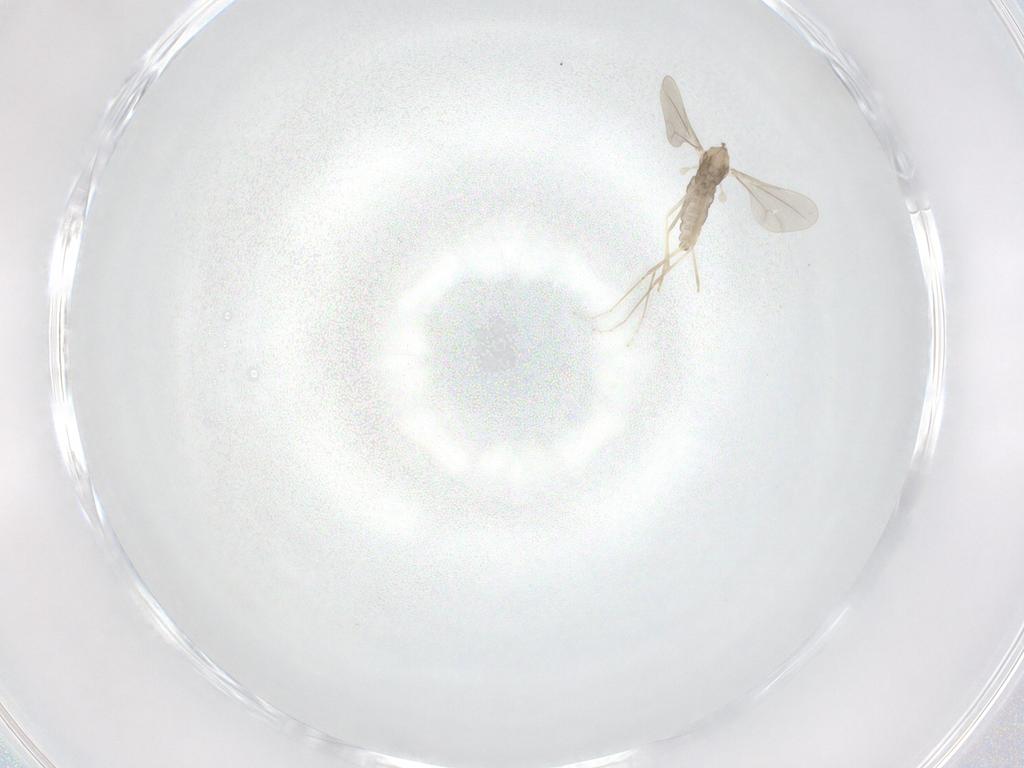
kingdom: Animalia
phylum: Arthropoda
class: Insecta
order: Diptera
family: Cecidomyiidae
